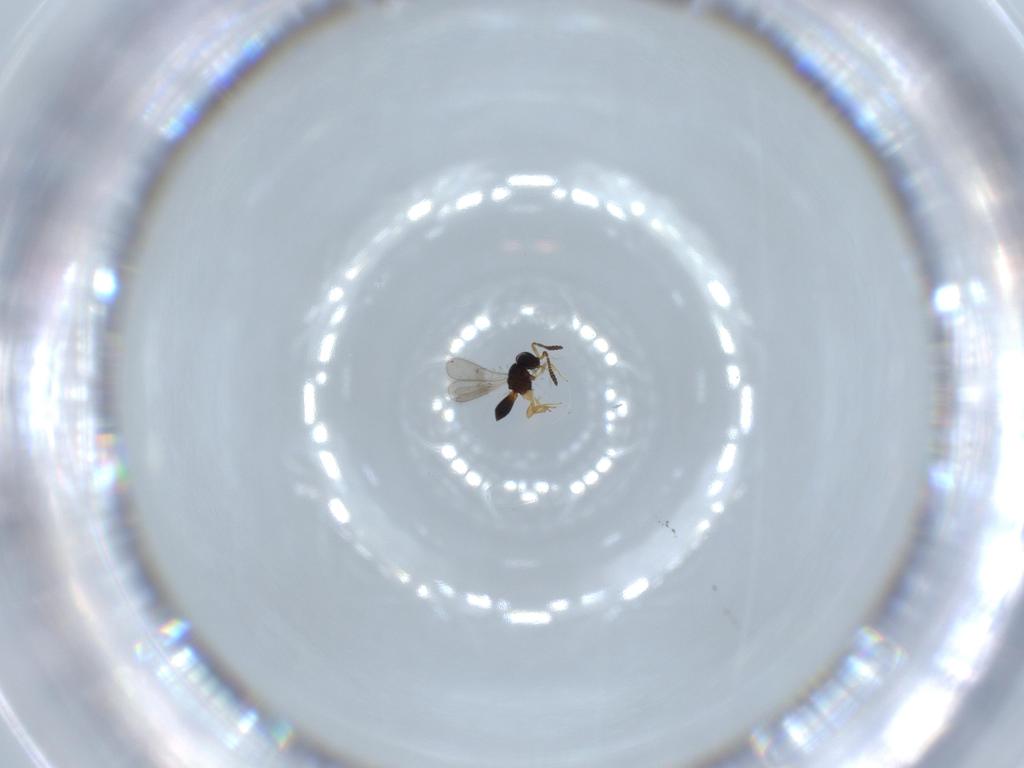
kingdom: Animalia
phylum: Arthropoda
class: Insecta
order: Hymenoptera
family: Scelionidae
